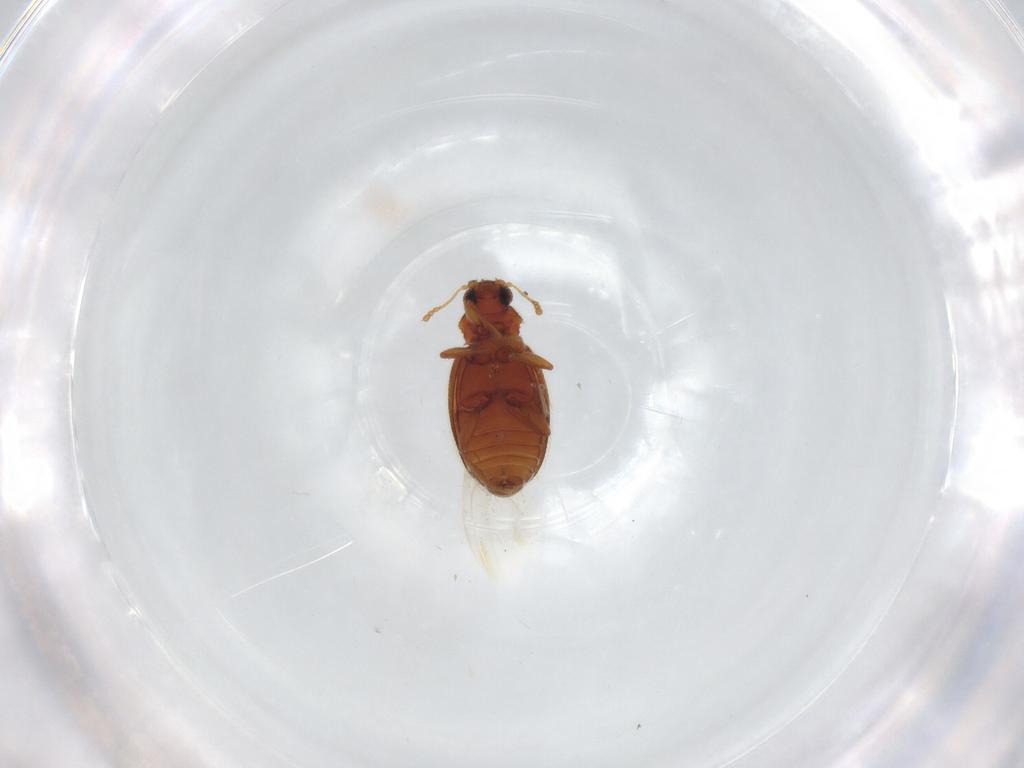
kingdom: Animalia
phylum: Arthropoda
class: Insecta
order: Coleoptera
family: Latridiidae
